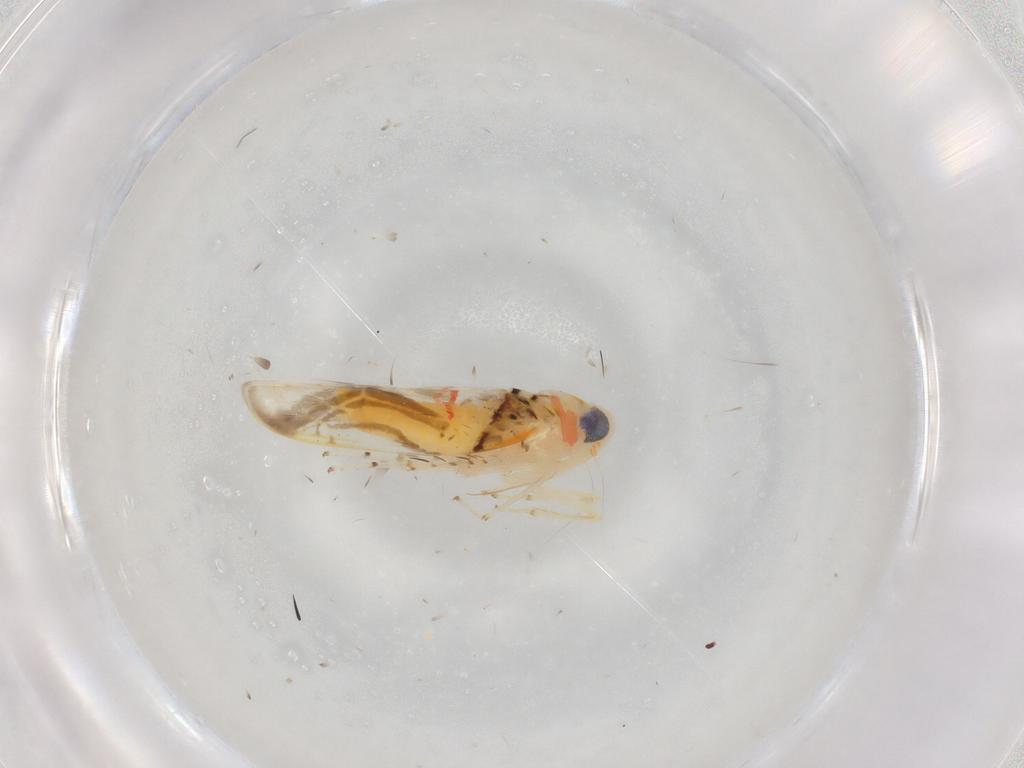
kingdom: Animalia
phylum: Arthropoda
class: Insecta
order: Hemiptera
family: Cicadellidae
